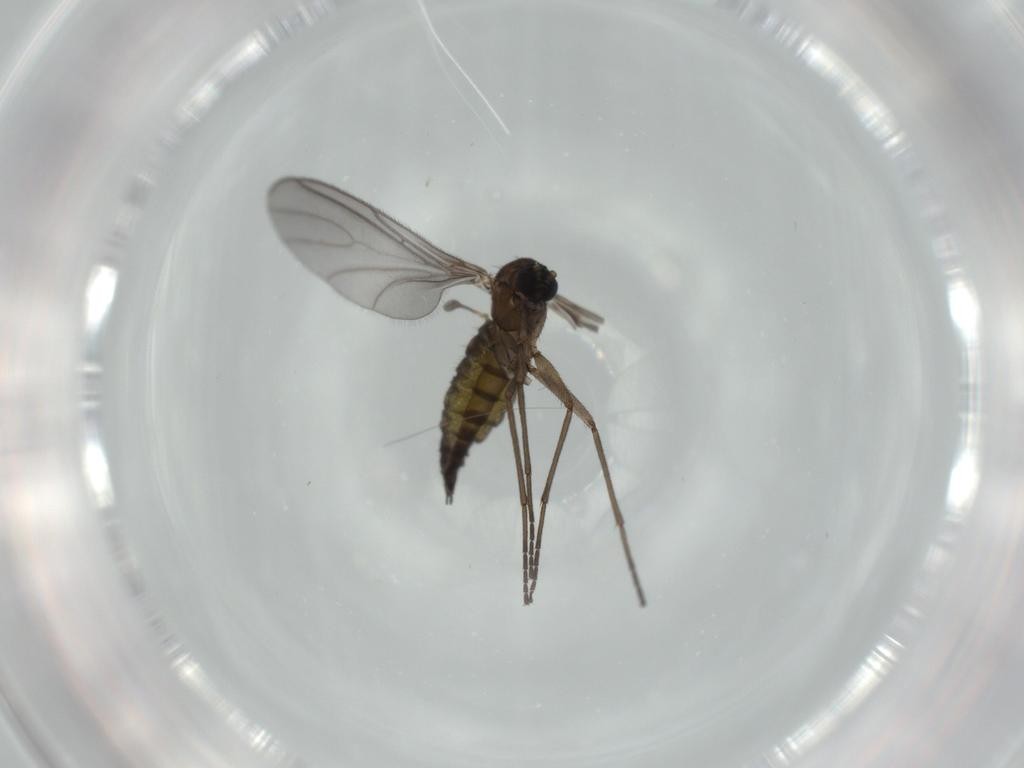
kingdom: Animalia
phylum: Arthropoda
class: Insecta
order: Diptera
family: Sciaridae
